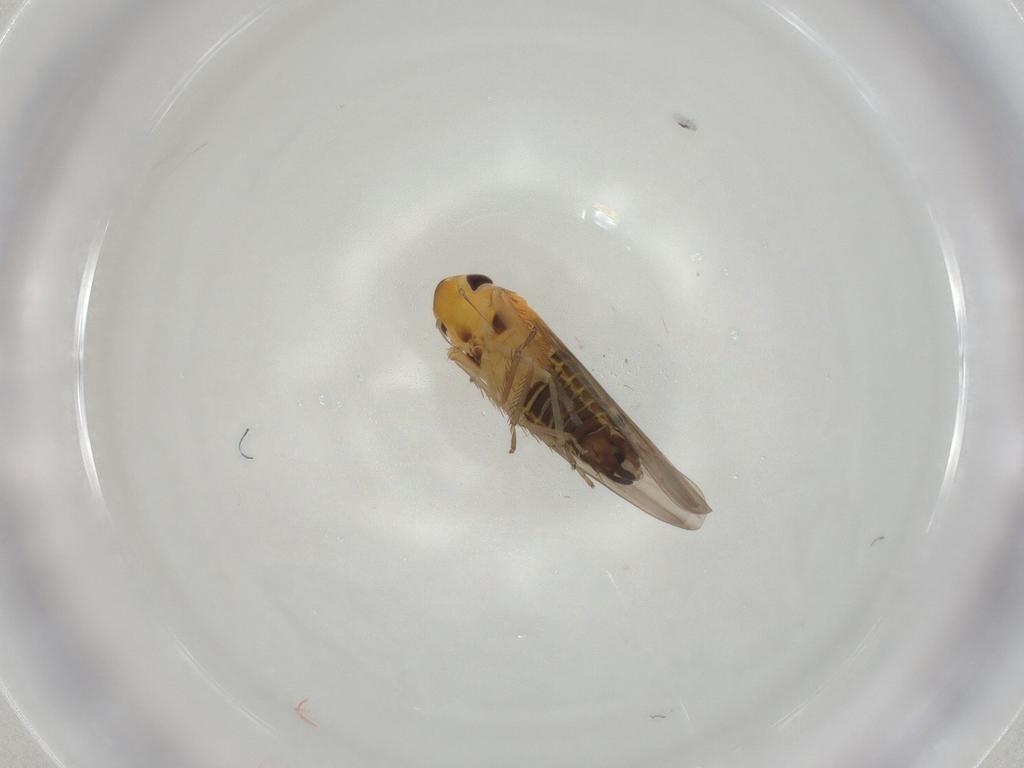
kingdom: Animalia
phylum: Arthropoda
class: Insecta
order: Hemiptera
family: Cicadellidae
